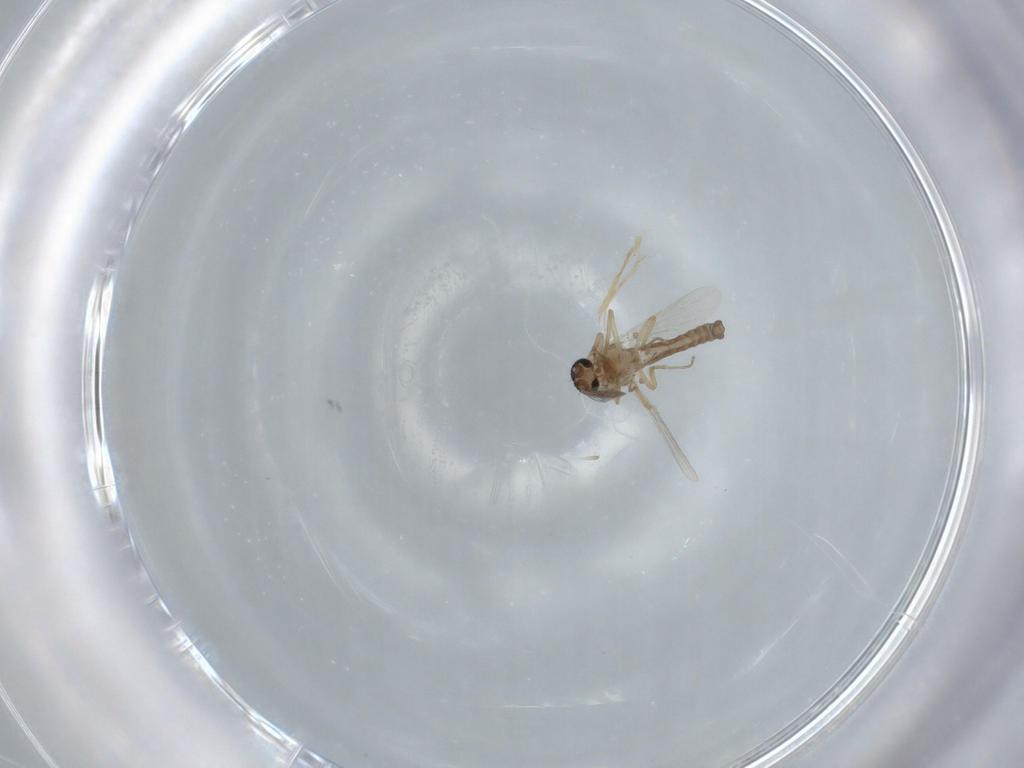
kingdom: Animalia
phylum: Arthropoda
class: Insecta
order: Diptera
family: Ceratopogonidae
